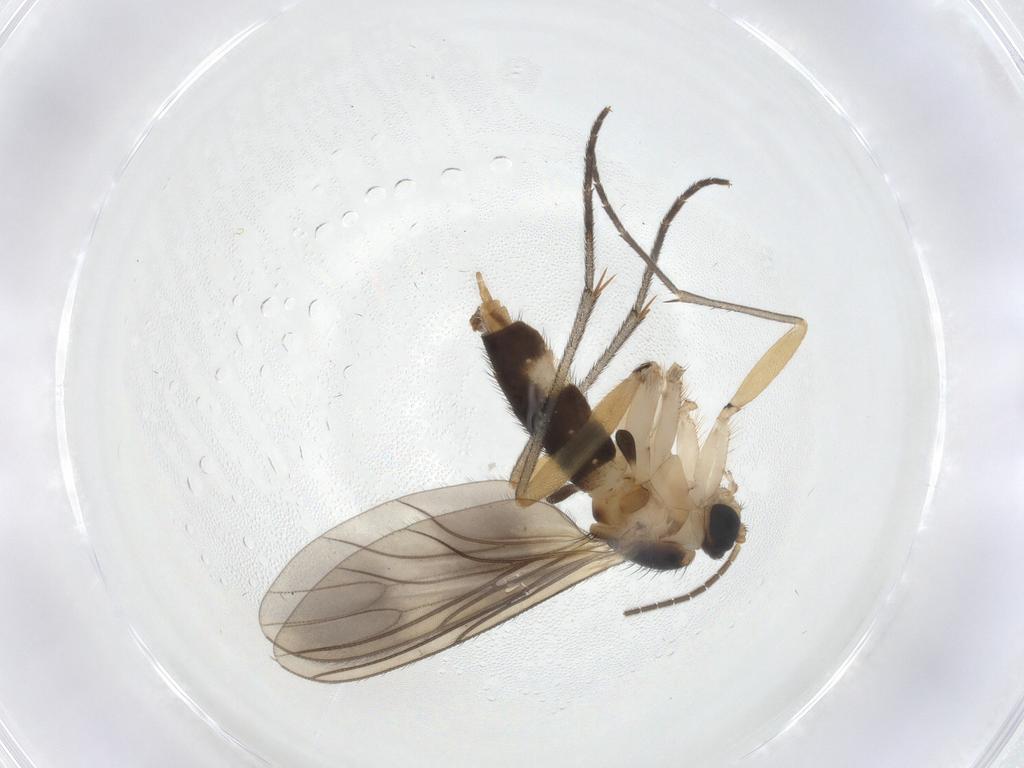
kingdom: Animalia
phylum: Arthropoda
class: Insecta
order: Diptera
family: Sciaridae
